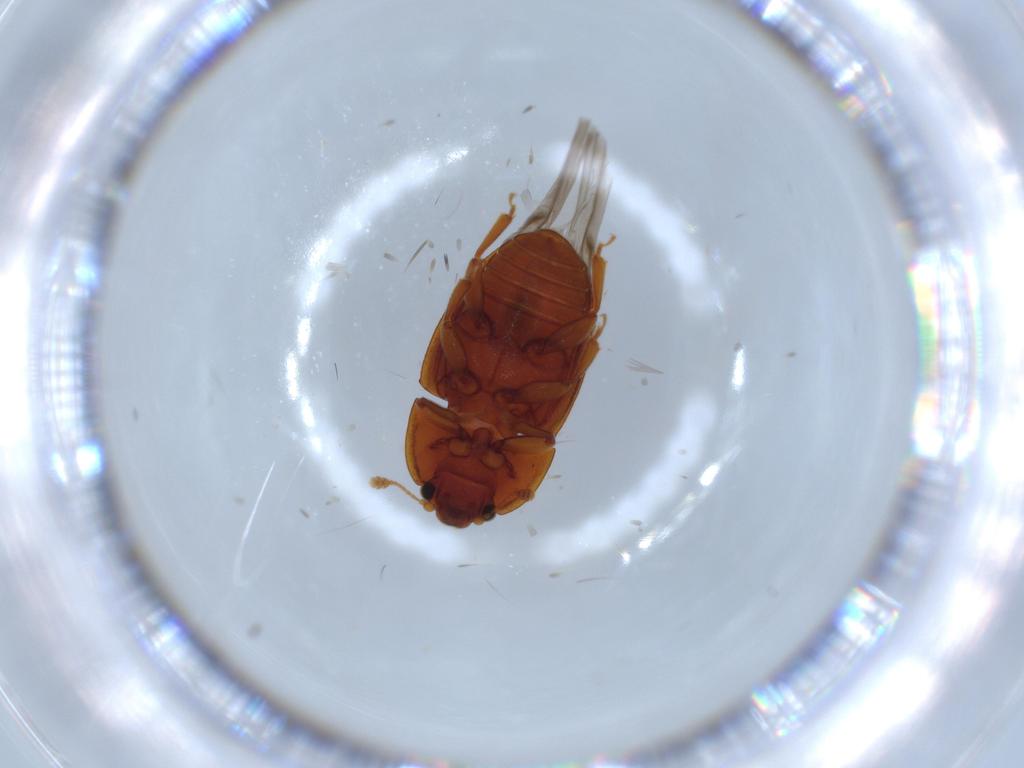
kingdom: Animalia
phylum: Arthropoda
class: Insecta
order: Coleoptera
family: Nitidulidae
